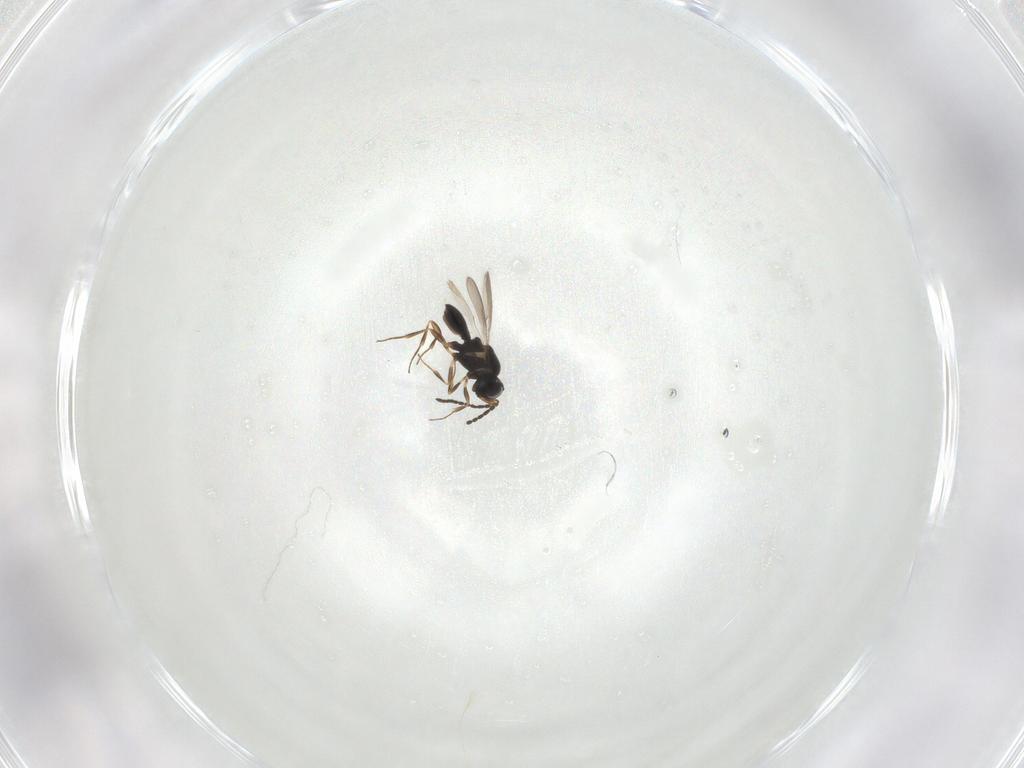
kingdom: Animalia
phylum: Arthropoda
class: Insecta
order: Hymenoptera
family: Scelionidae
